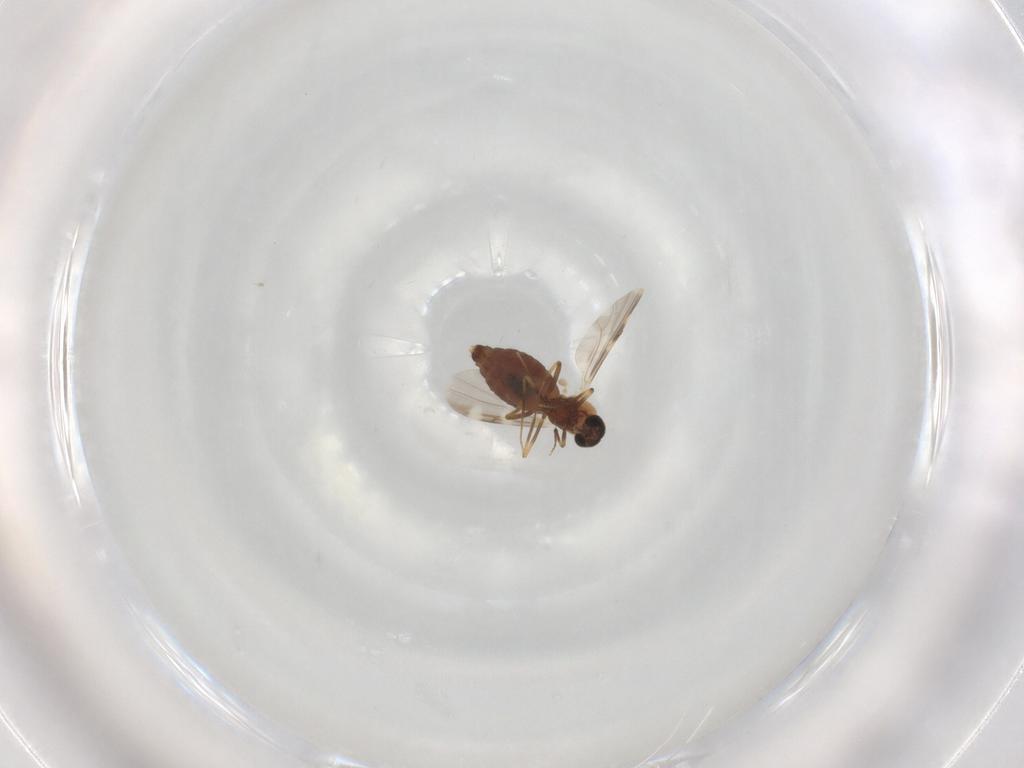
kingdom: Animalia
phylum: Arthropoda
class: Insecta
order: Diptera
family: Ceratopogonidae
